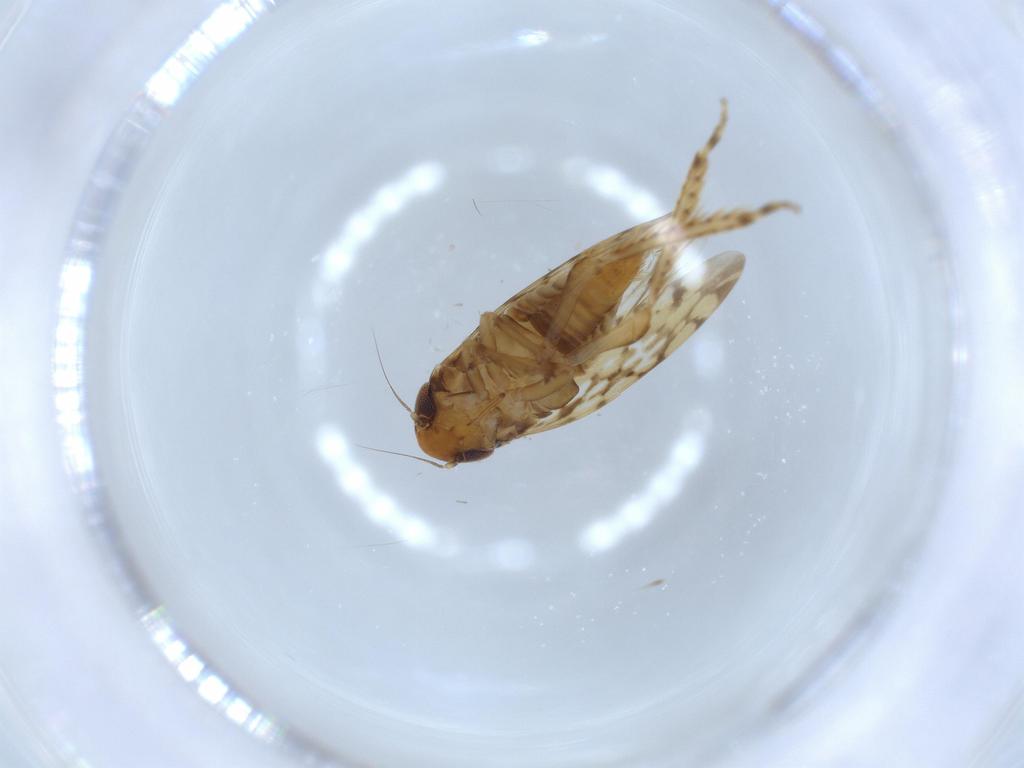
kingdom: Animalia
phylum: Arthropoda
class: Insecta
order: Hemiptera
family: Cicadellidae
